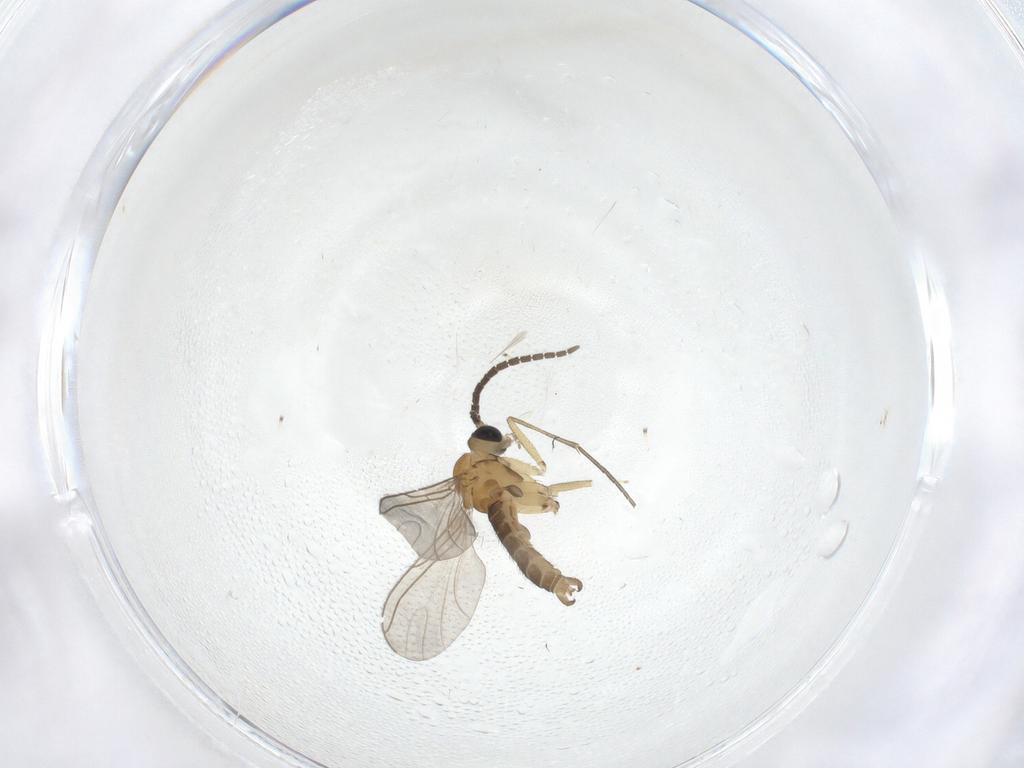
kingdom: Animalia
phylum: Arthropoda
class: Insecta
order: Diptera
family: Sciaridae
